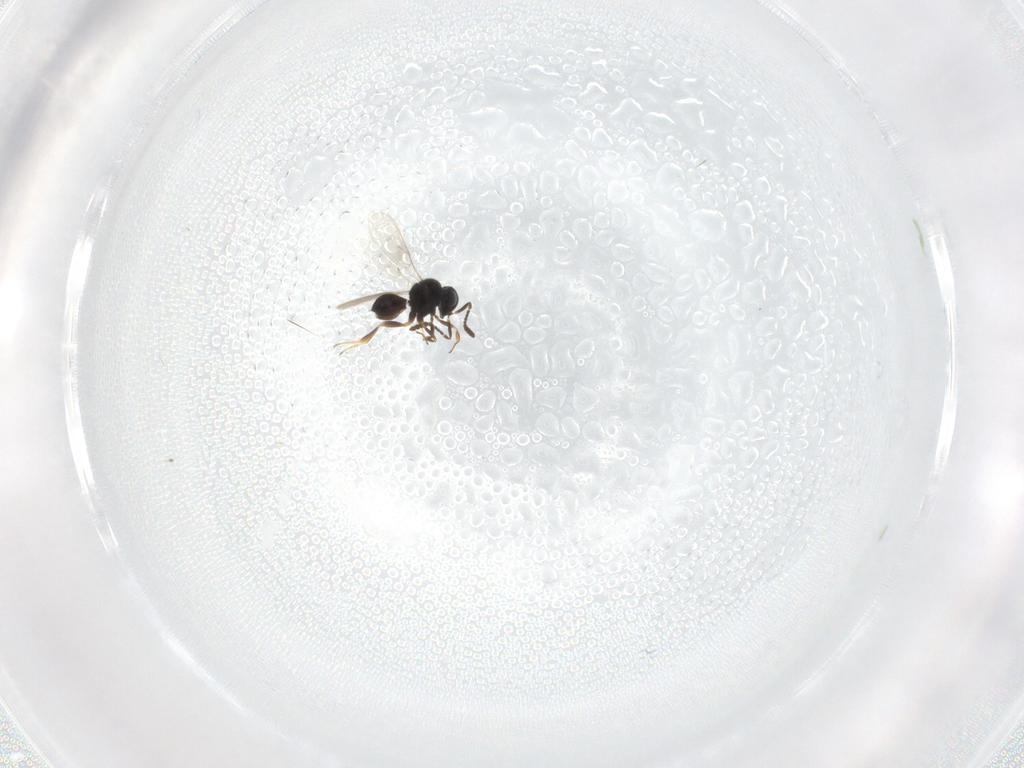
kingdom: Animalia
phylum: Arthropoda
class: Insecta
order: Hymenoptera
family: Scelionidae
